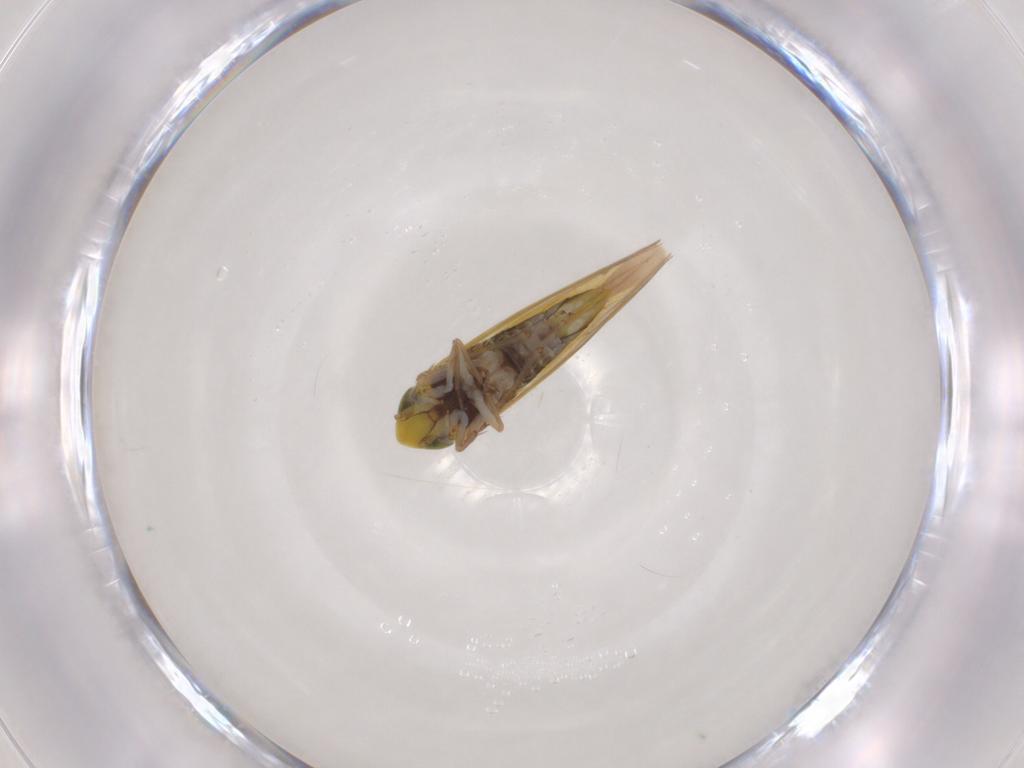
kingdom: Animalia
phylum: Arthropoda
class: Insecta
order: Hemiptera
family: Cicadellidae
